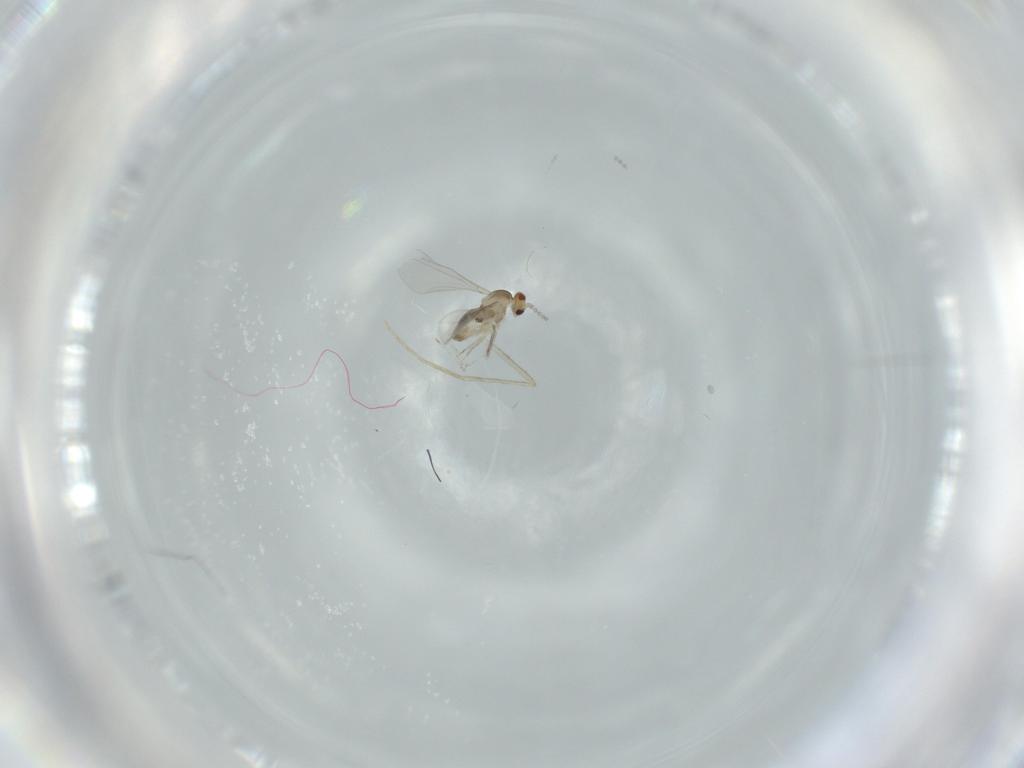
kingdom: Animalia
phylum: Arthropoda
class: Insecta
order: Diptera
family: Cecidomyiidae
